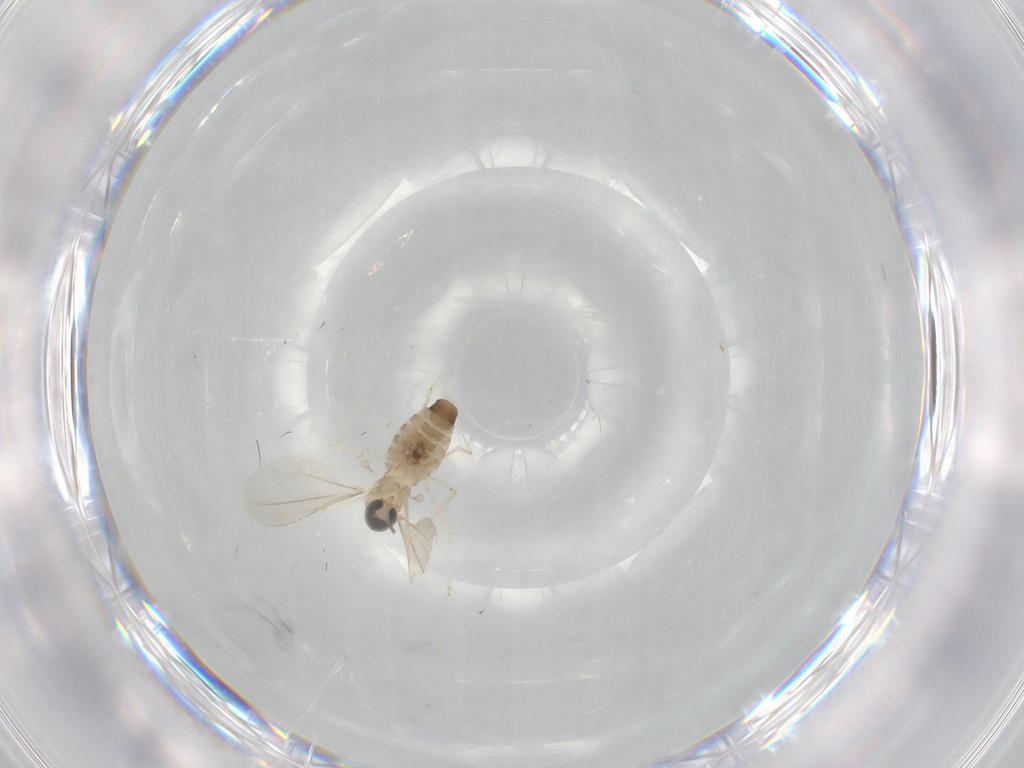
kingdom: Animalia
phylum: Arthropoda
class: Insecta
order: Diptera
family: Cecidomyiidae
